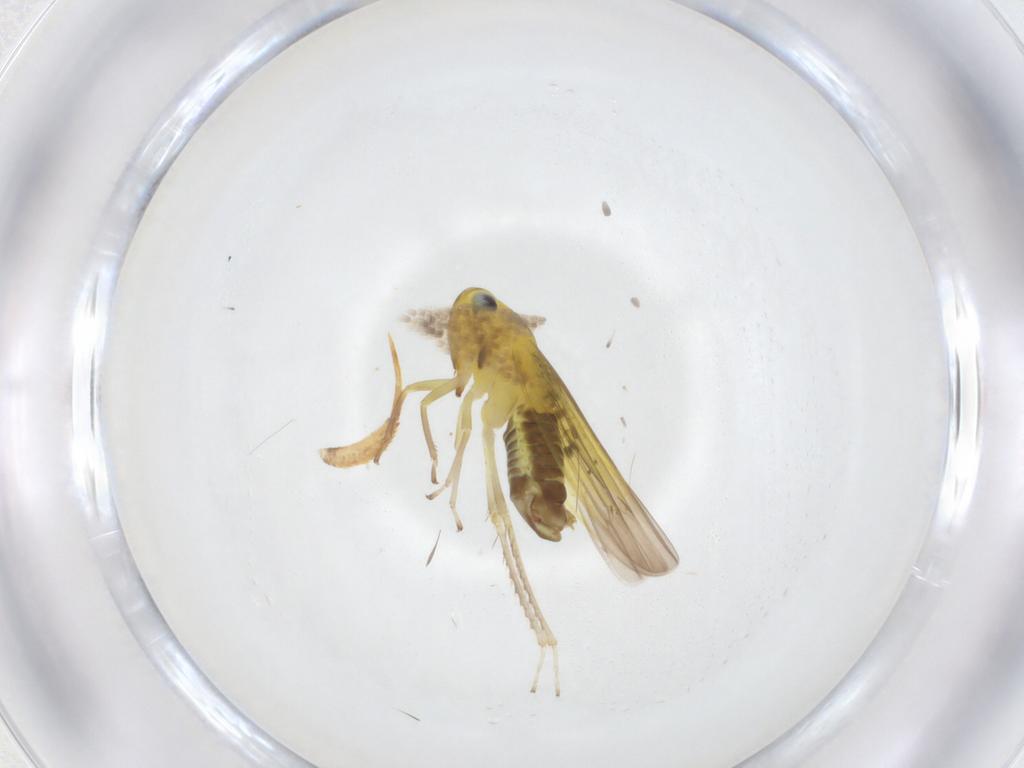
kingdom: Animalia
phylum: Arthropoda
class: Insecta
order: Hemiptera
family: Cicadellidae
